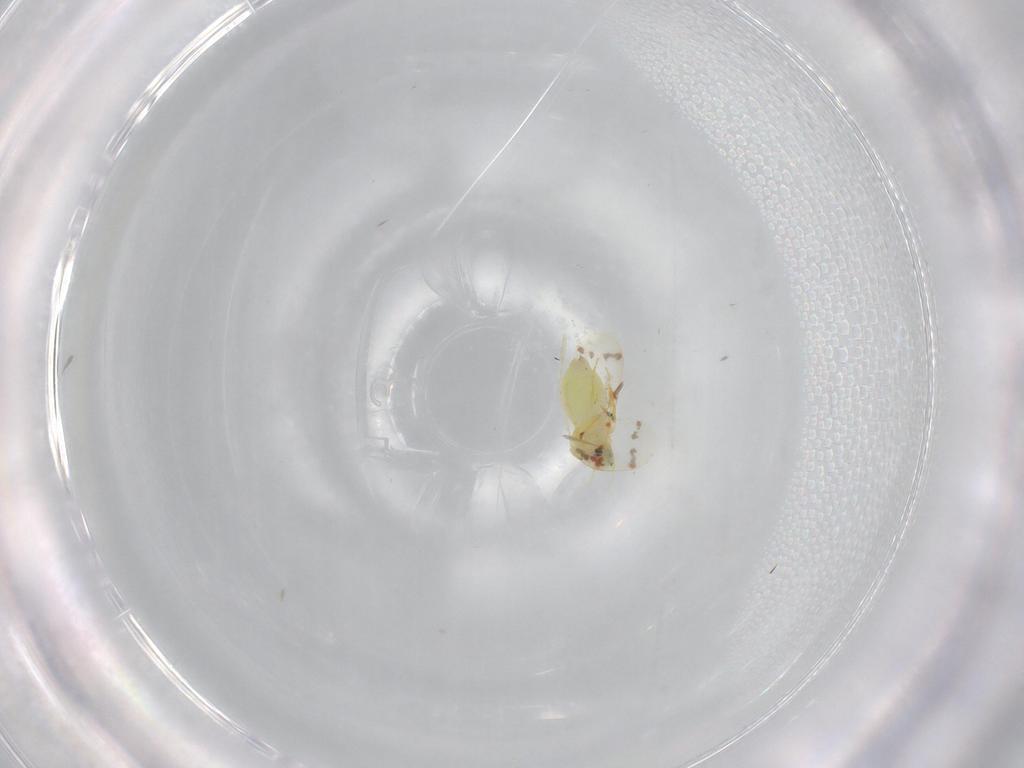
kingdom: Animalia
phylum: Arthropoda
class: Insecta
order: Hemiptera
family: Aleyrodidae
